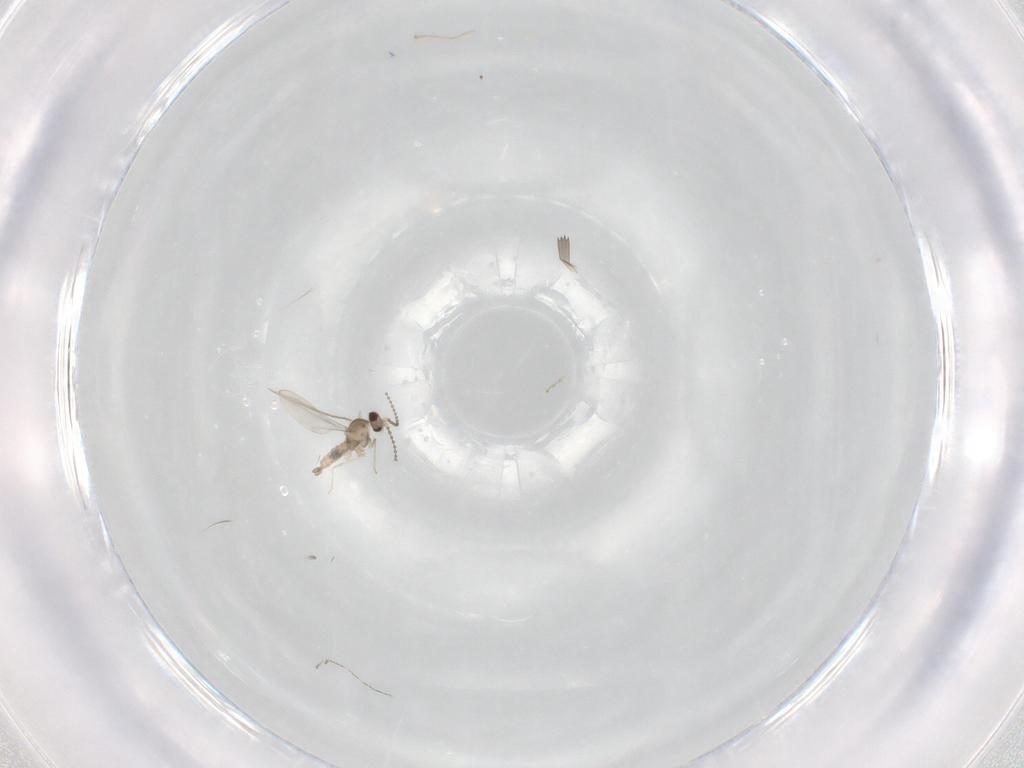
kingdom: Animalia
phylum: Arthropoda
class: Insecta
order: Diptera
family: Cecidomyiidae
